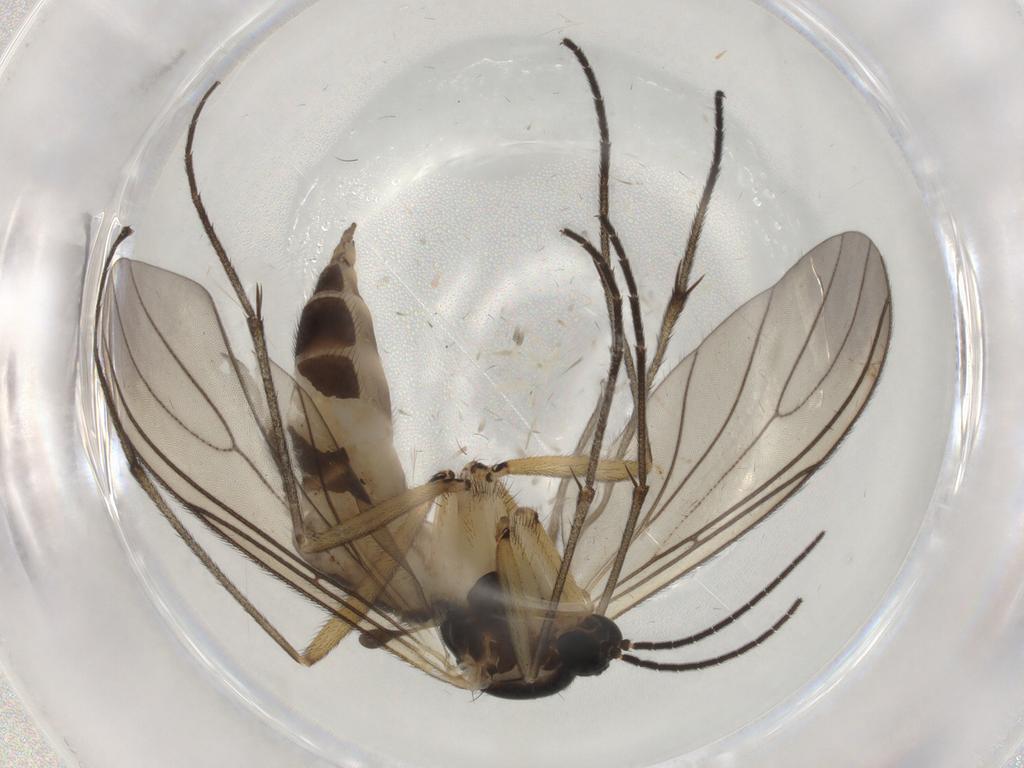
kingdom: Animalia
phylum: Arthropoda
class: Insecta
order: Diptera
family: Sciaridae
